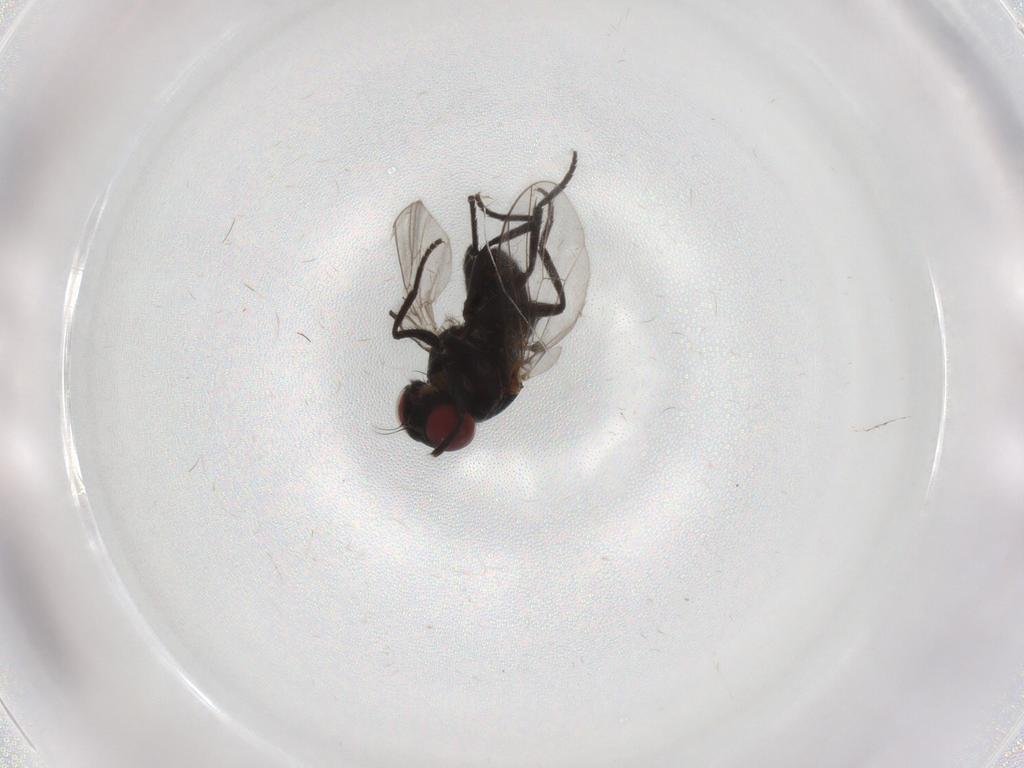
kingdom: Animalia
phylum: Arthropoda
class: Insecta
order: Diptera
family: Agromyzidae
